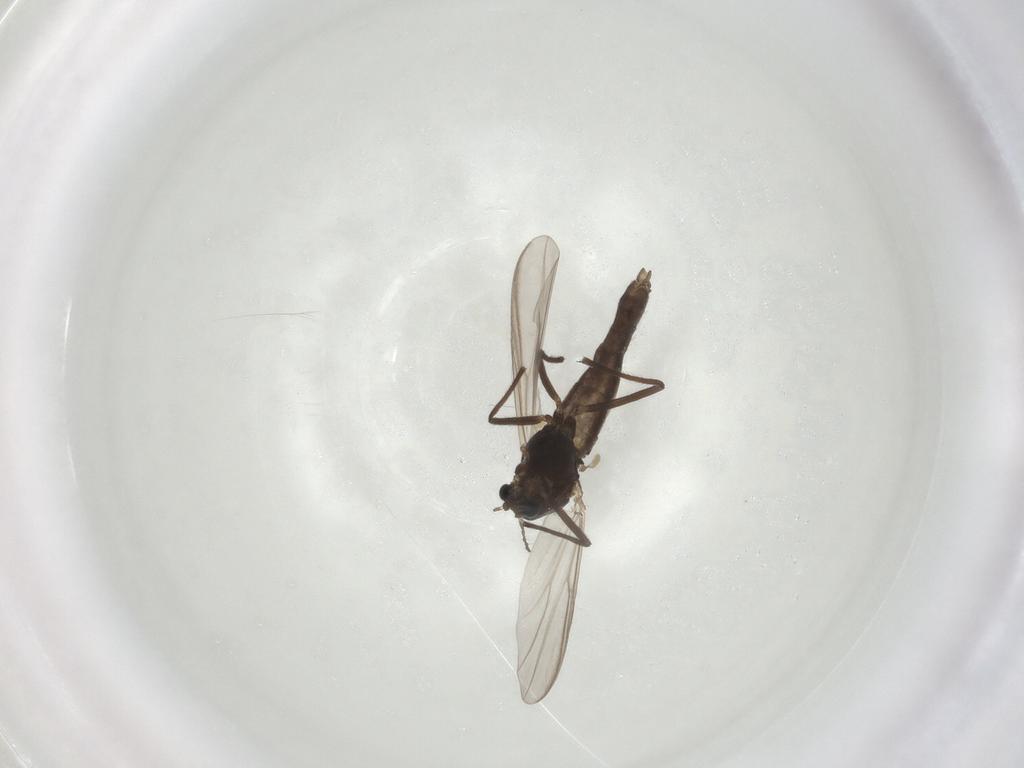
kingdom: Animalia
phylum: Arthropoda
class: Insecta
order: Diptera
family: Chironomidae
